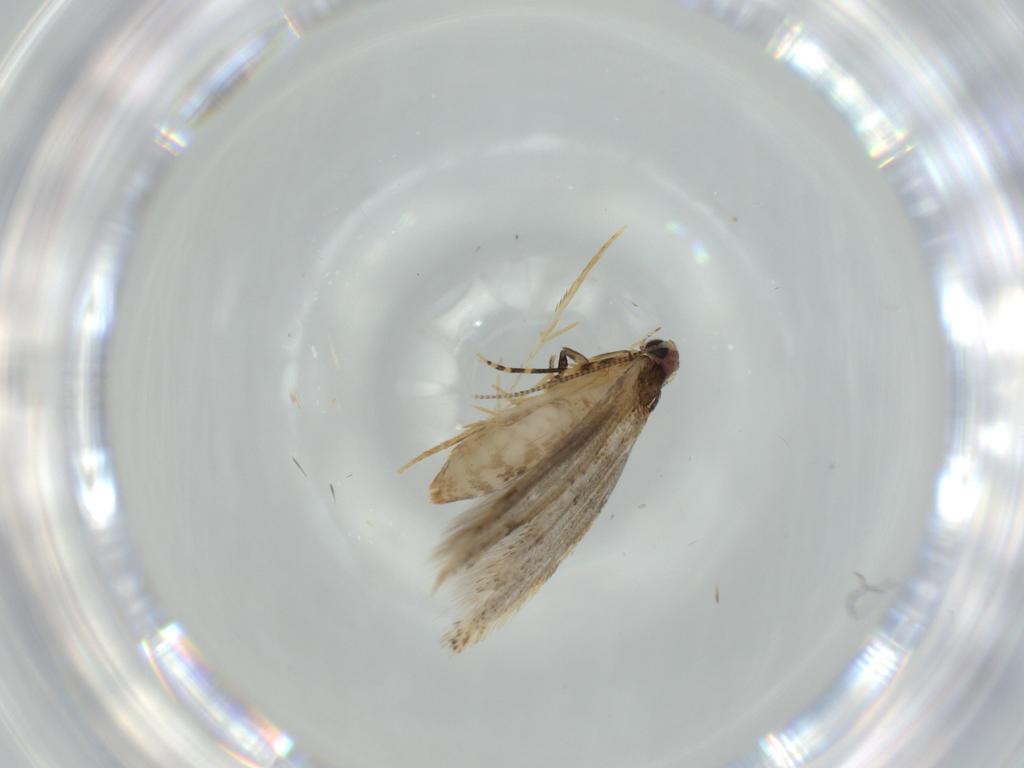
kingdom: Animalia
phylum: Arthropoda
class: Insecta
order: Lepidoptera
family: Tineidae
